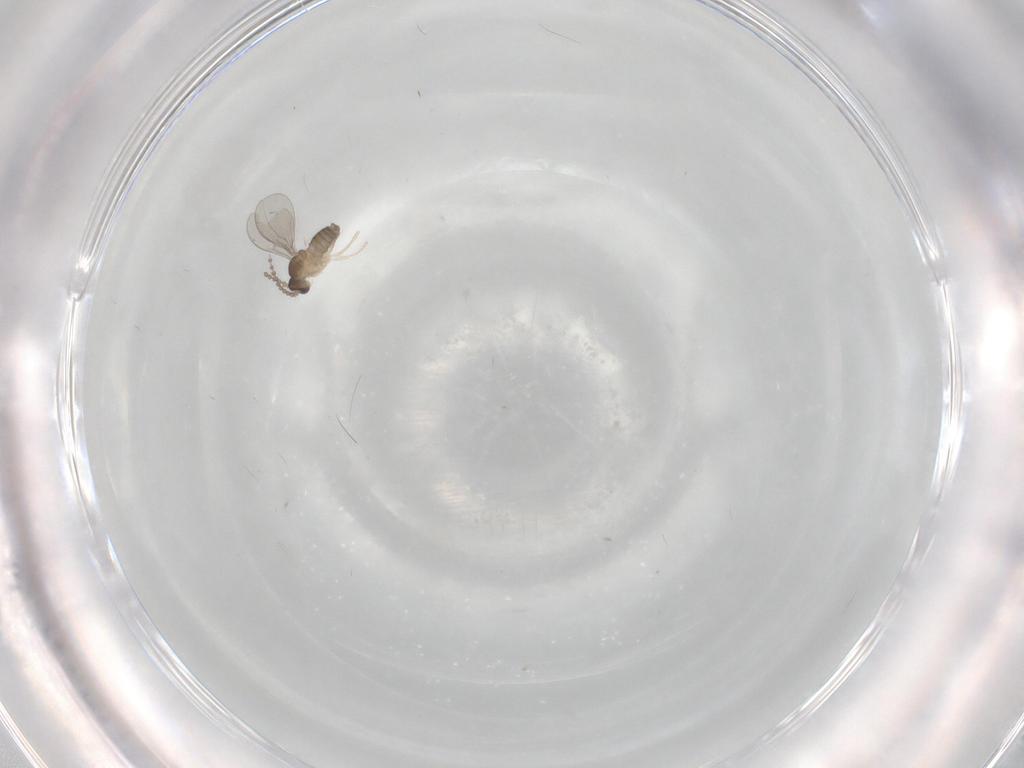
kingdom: Animalia
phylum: Arthropoda
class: Insecta
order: Diptera
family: Cecidomyiidae
